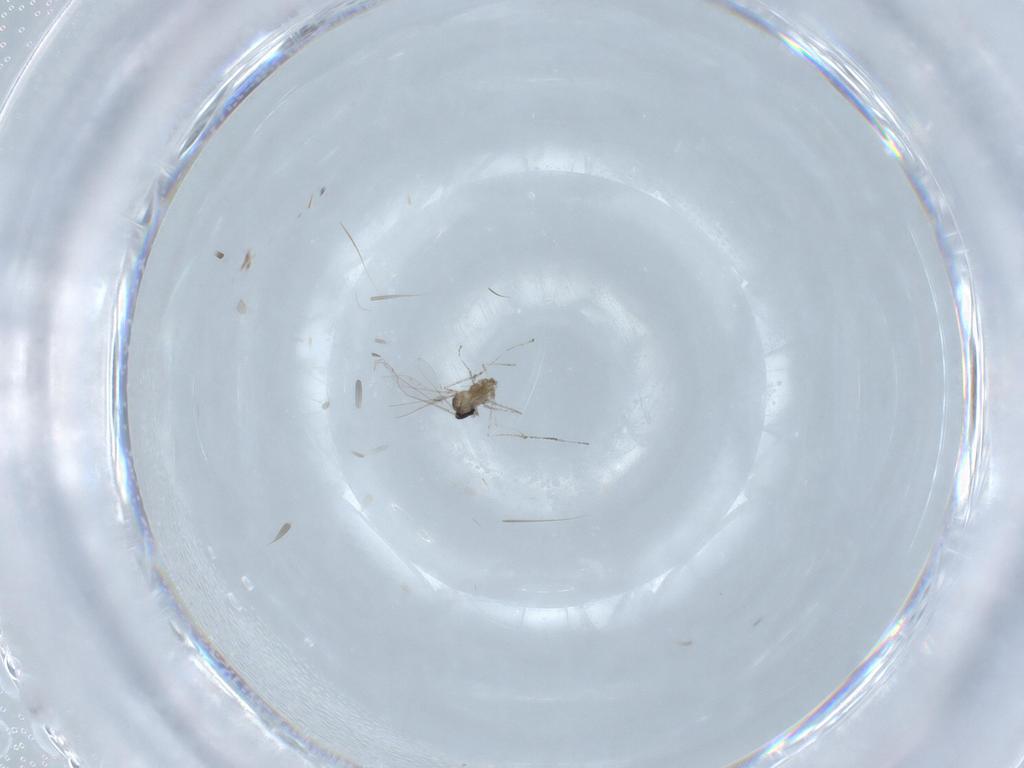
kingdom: Animalia
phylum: Arthropoda
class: Insecta
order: Diptera
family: Cecidomyiidae
